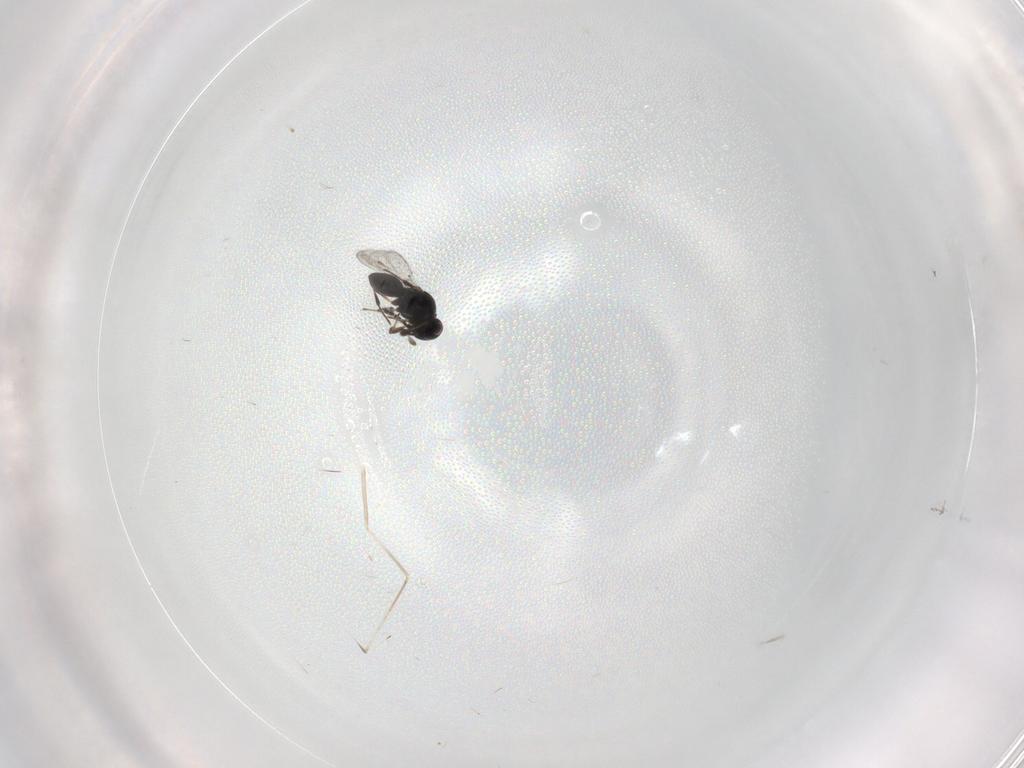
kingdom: Animalia
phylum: Arthropoda
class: Insecta
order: Hymenoptera
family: Platygastridae
